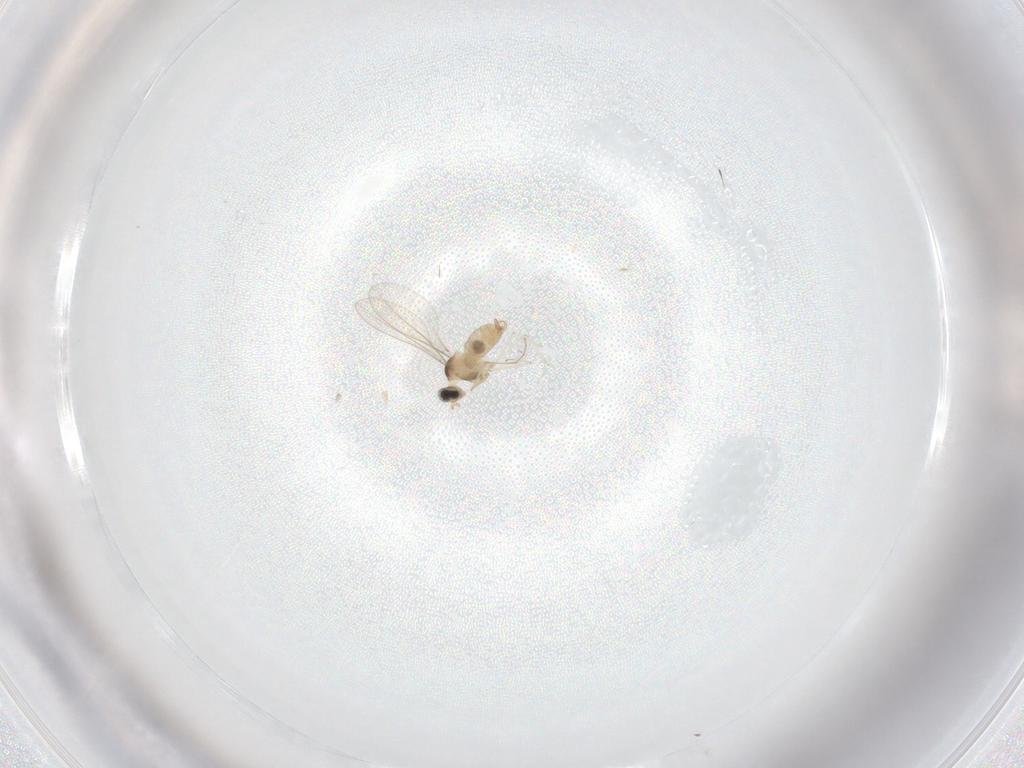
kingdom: Animalia
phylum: Arthropoda
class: Insecta
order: Diptera
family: Cecidomyiidae
